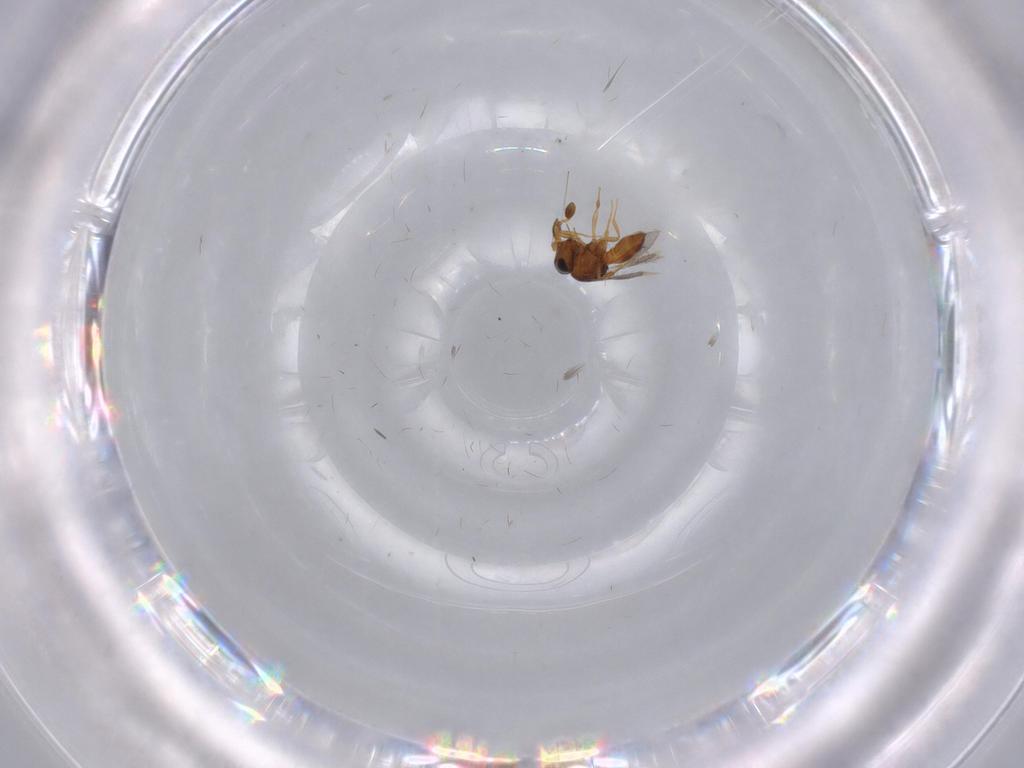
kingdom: Animalia
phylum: Arthropoda
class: Insecta
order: Hymenoptera
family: Scelionidae
